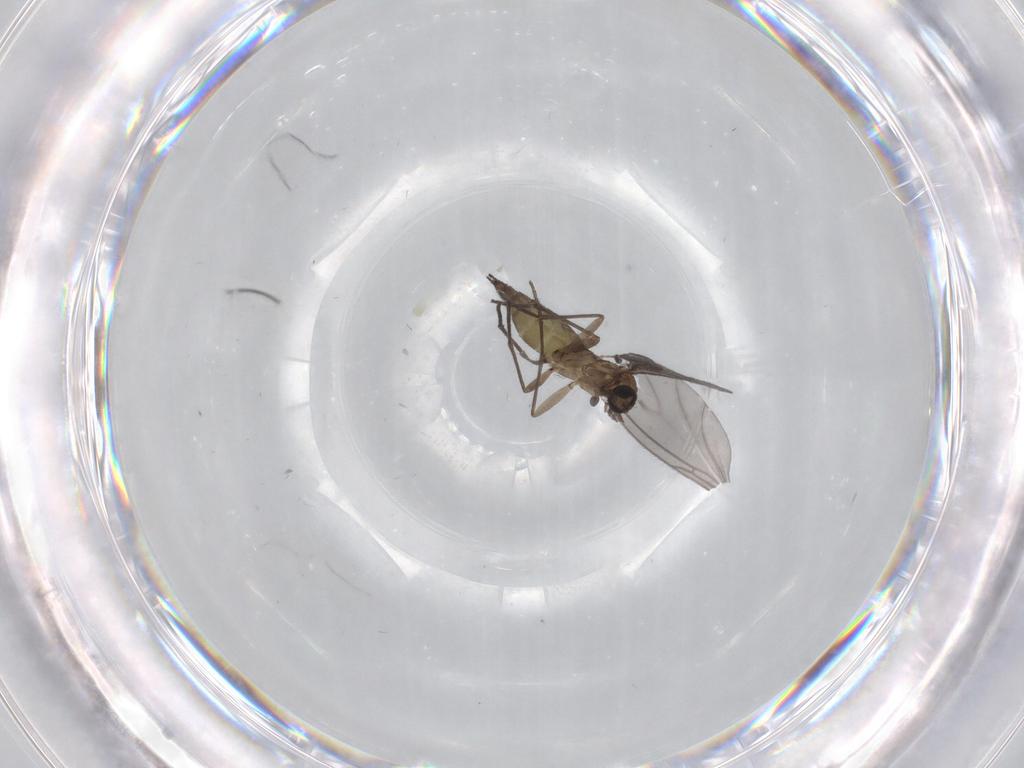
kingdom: Animalia
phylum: Arthropoda
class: Insecta
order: Diptera
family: Sciaridae
